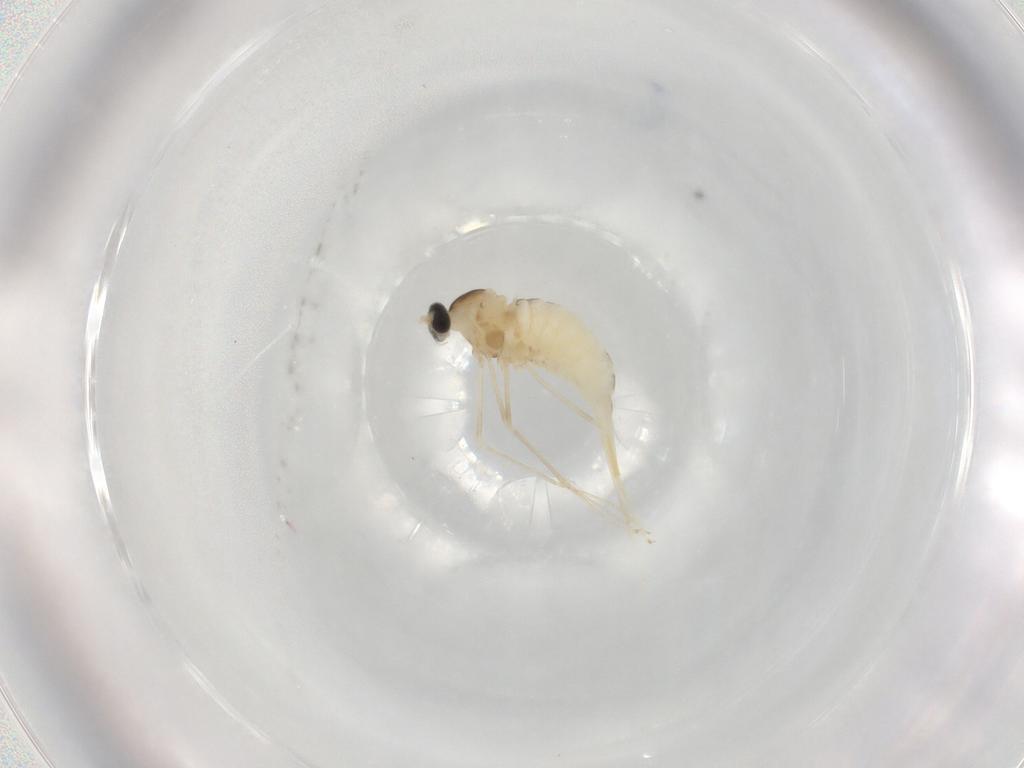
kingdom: Animalia
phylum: Arthropoda
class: Insecta
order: Diptera
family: Cecidomyiidae
